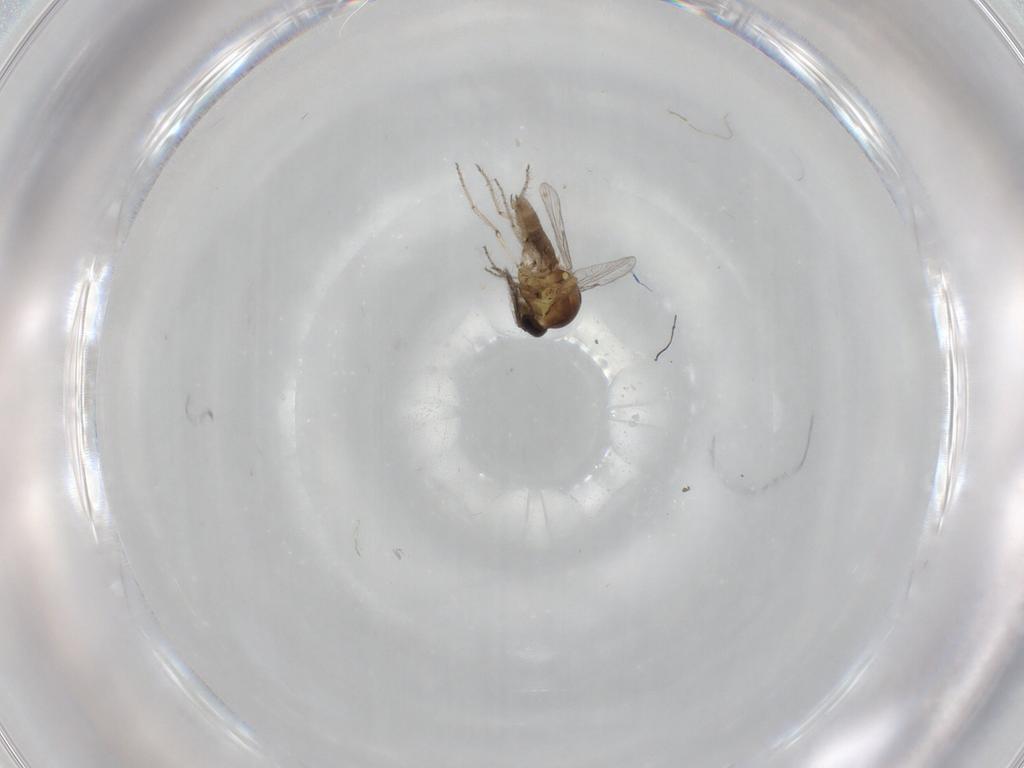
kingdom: Animalia
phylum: Arthropoda
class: Insecta
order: Diptera
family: Ceratopogonidae
